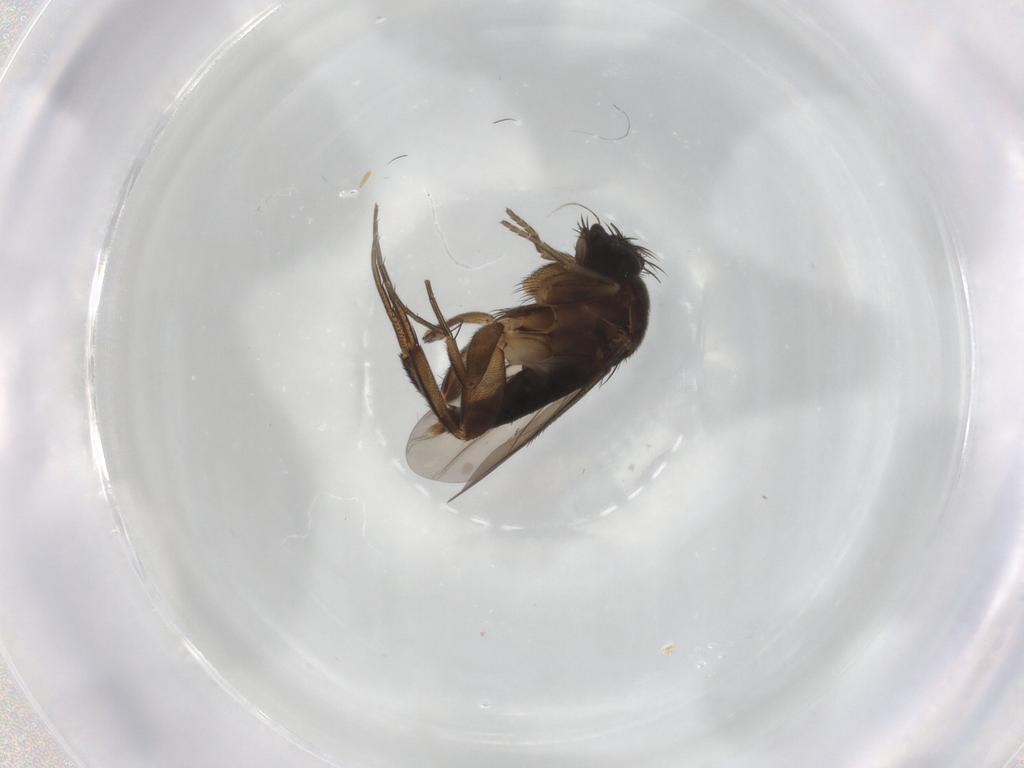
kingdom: Animalia
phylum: Arthropoda
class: Insecta
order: Diptera
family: Phoridae
